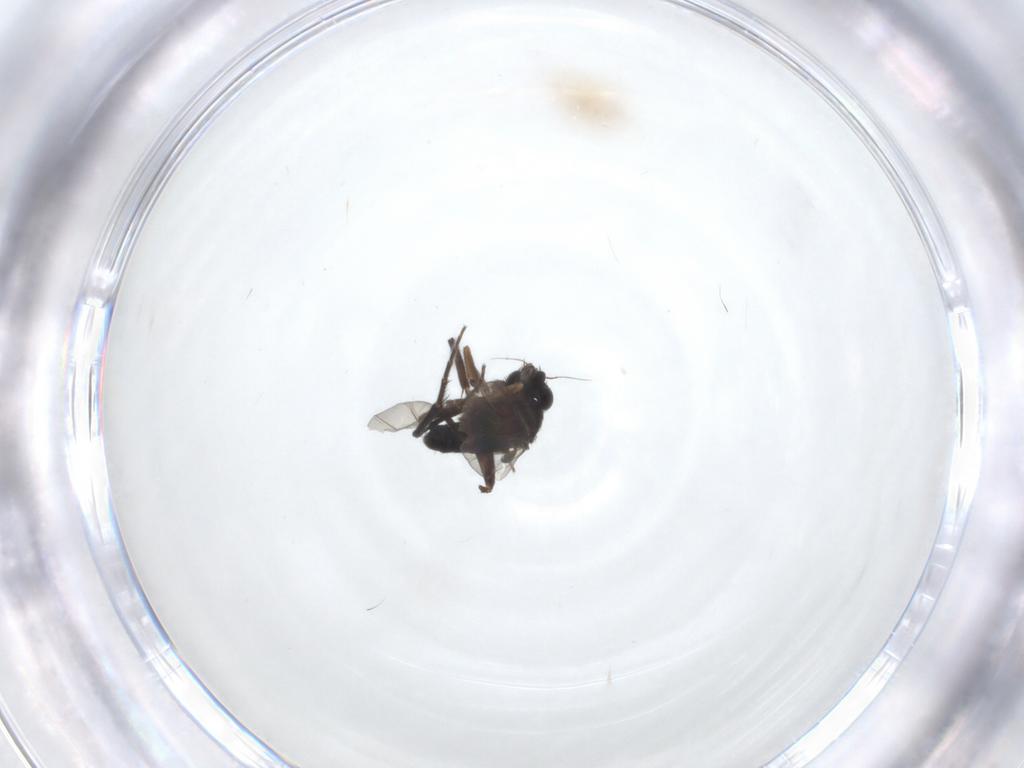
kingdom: Animalia
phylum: Arthropoda
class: Insecta
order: Diptera
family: Phoridae
